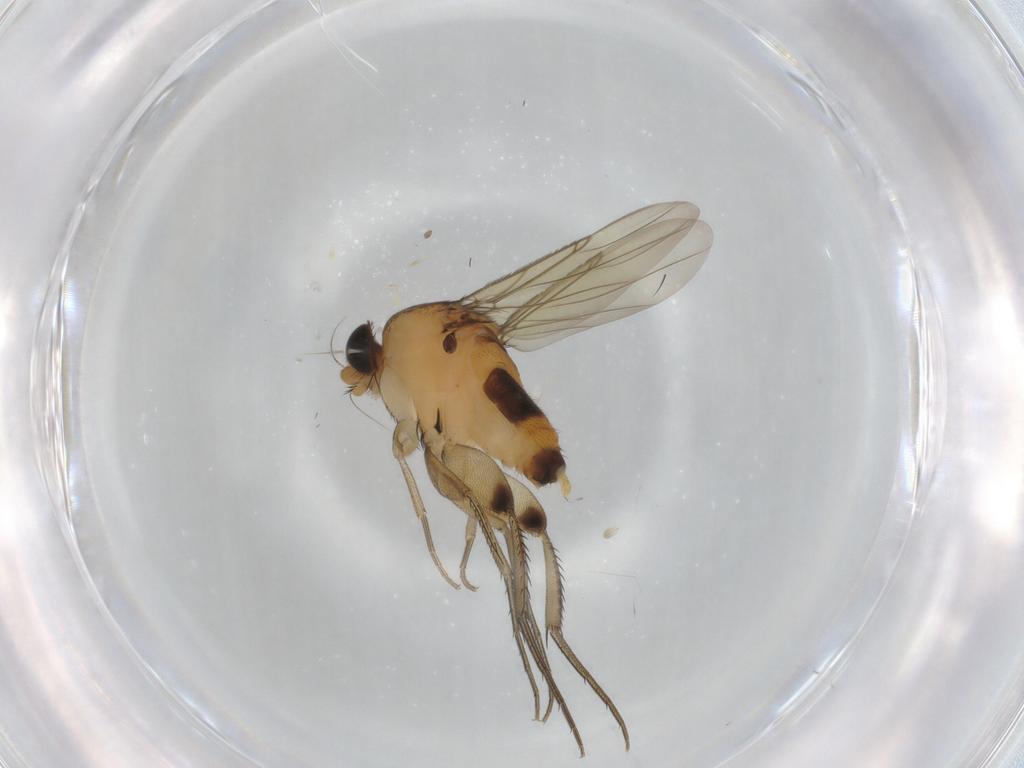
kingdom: Animalia
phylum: Arthropoda
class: Insecta
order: Diptera
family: Phoridae
